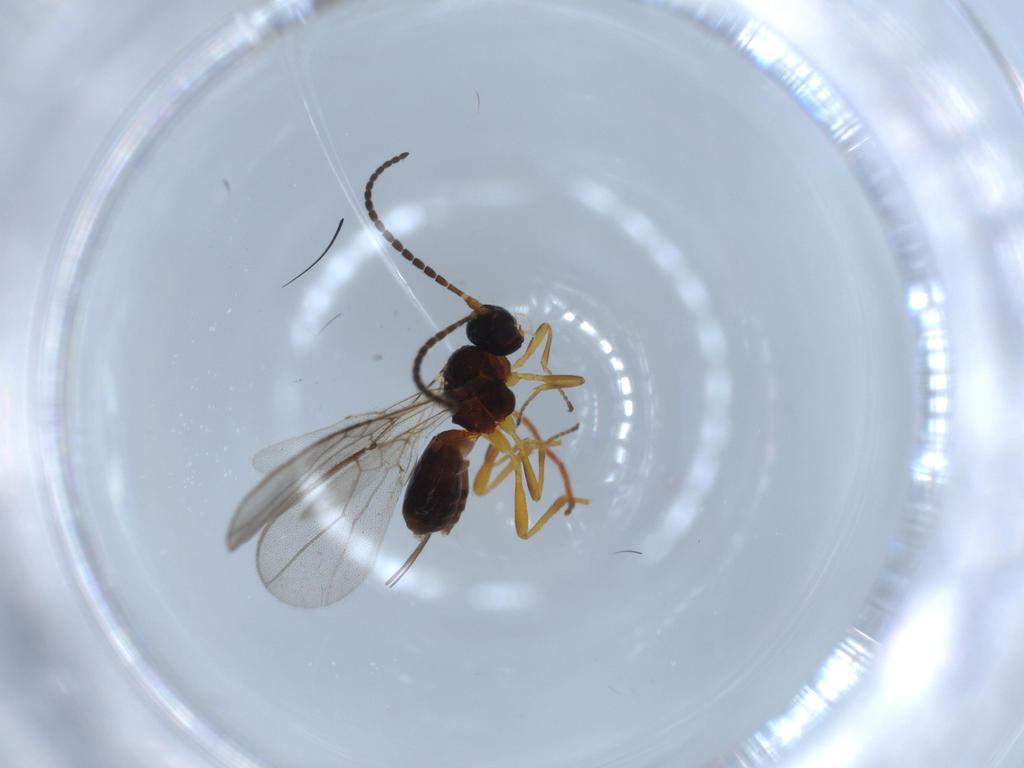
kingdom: Animalia
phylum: Arthropoda
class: Insecta
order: Hymenoptera
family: Braconidae
